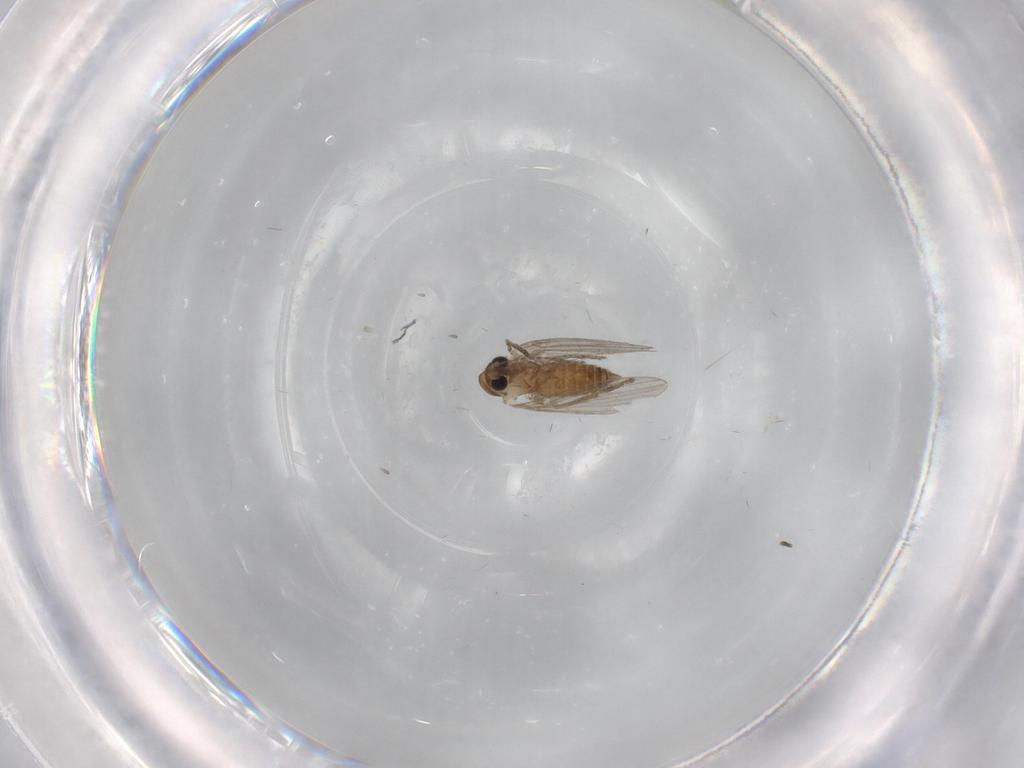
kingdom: Animalia
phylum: Arthropoda
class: Insecta
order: Diptera
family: Psychodidae
